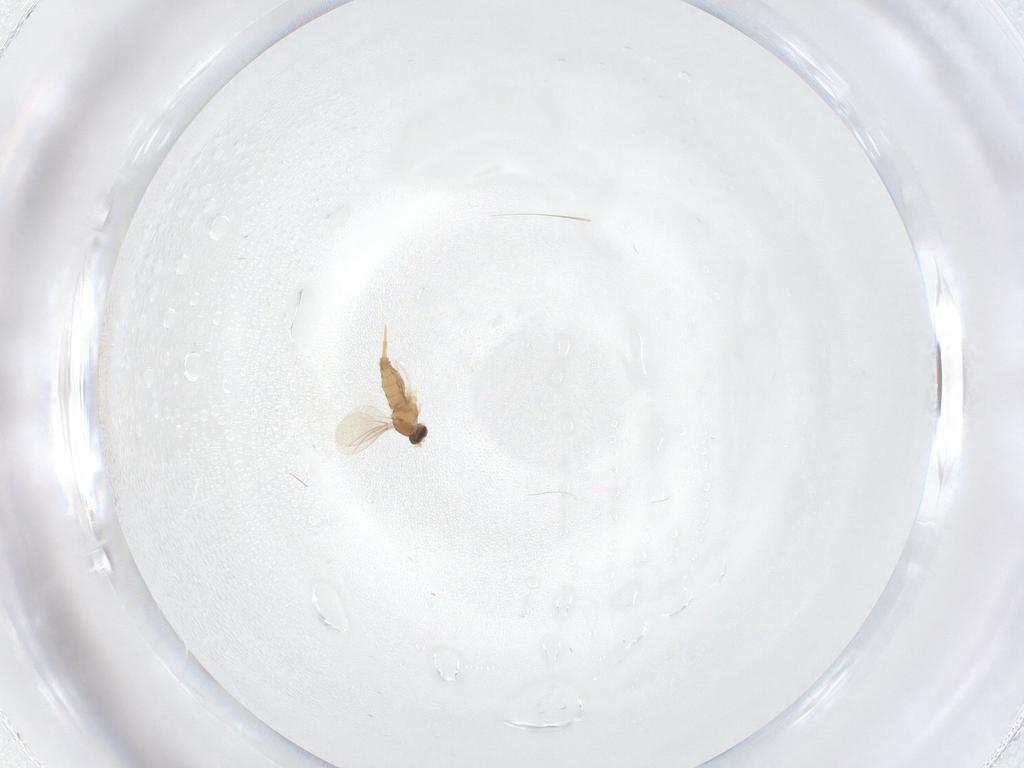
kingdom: Animalia
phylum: Arthropoda
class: Insecta
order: Diptera
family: Cecidomyiidae
